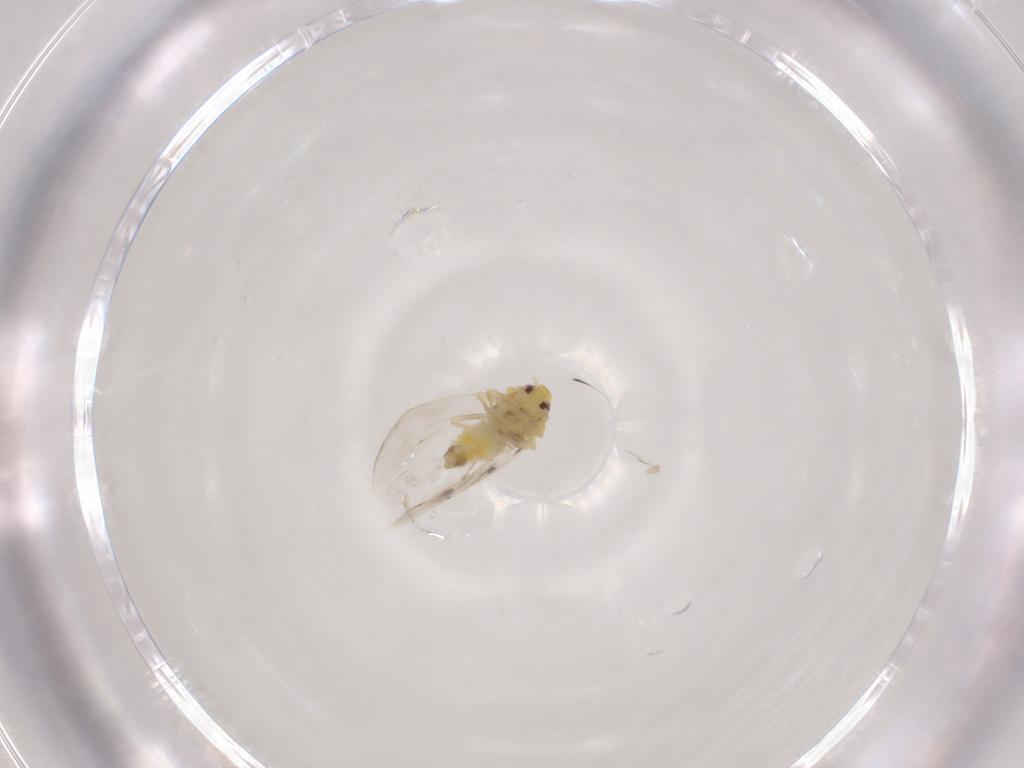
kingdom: Animalia
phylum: Arthropoda
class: Insecta
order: Hemiptera
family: Aleyrodidae
